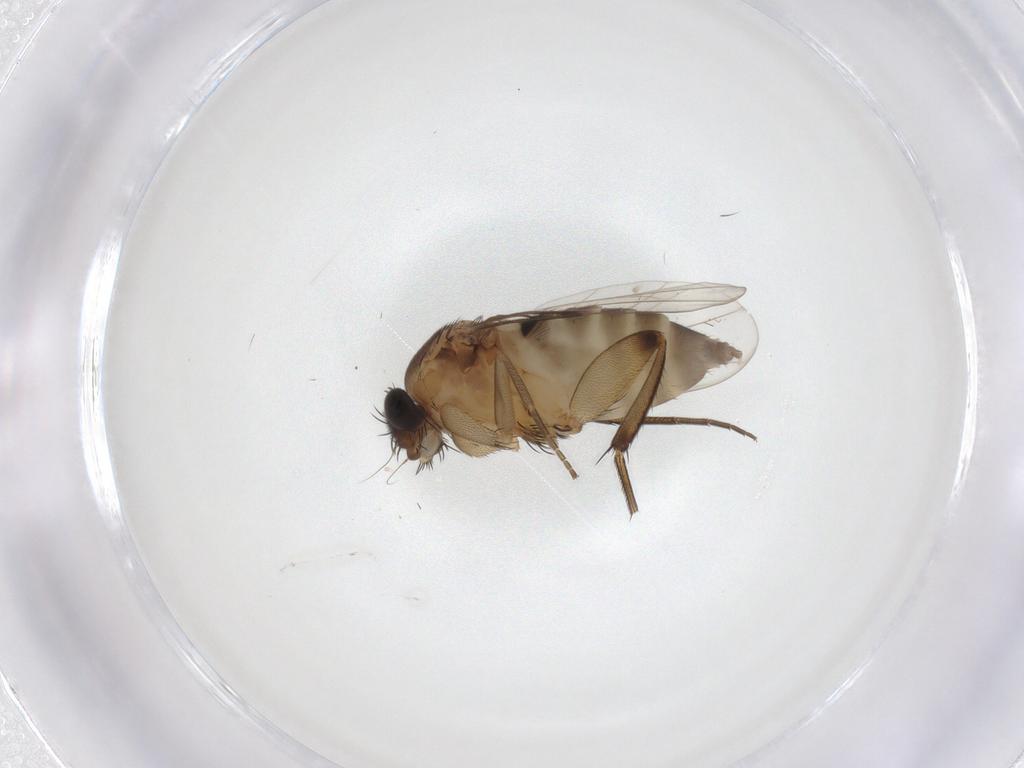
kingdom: Animalia
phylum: Arthropoda
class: Insecta
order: Diptera
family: Phoridae
